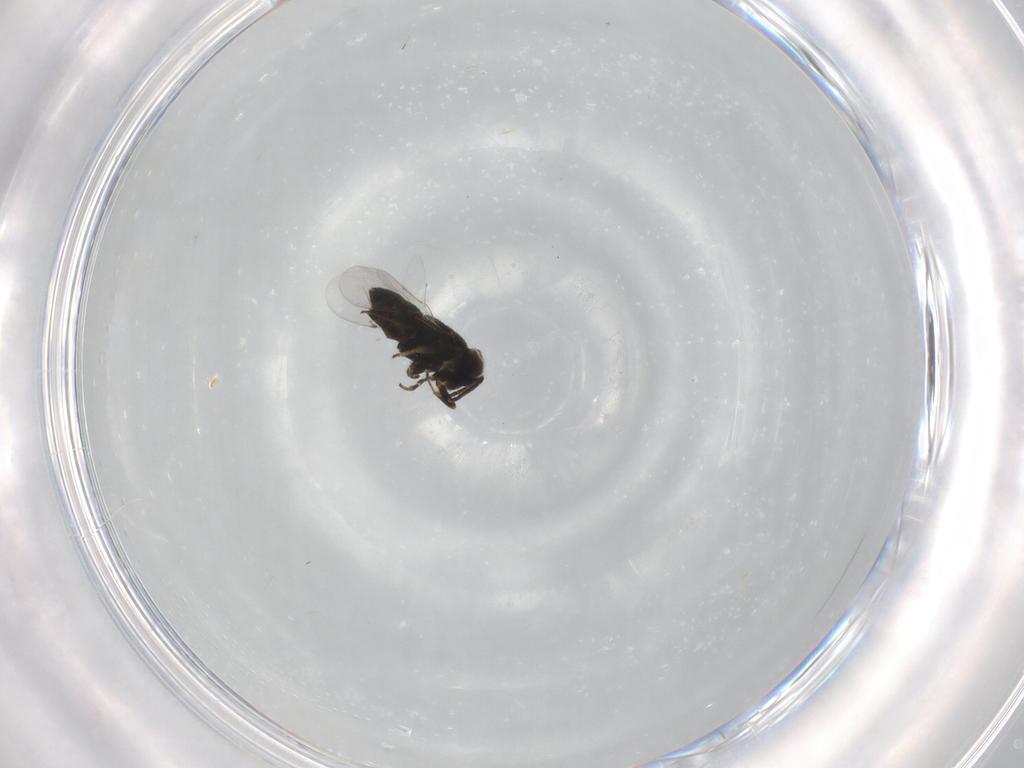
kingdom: Animalia
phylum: Arthropoda
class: Insecta
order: Hymenoptera
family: Encyrtidae
